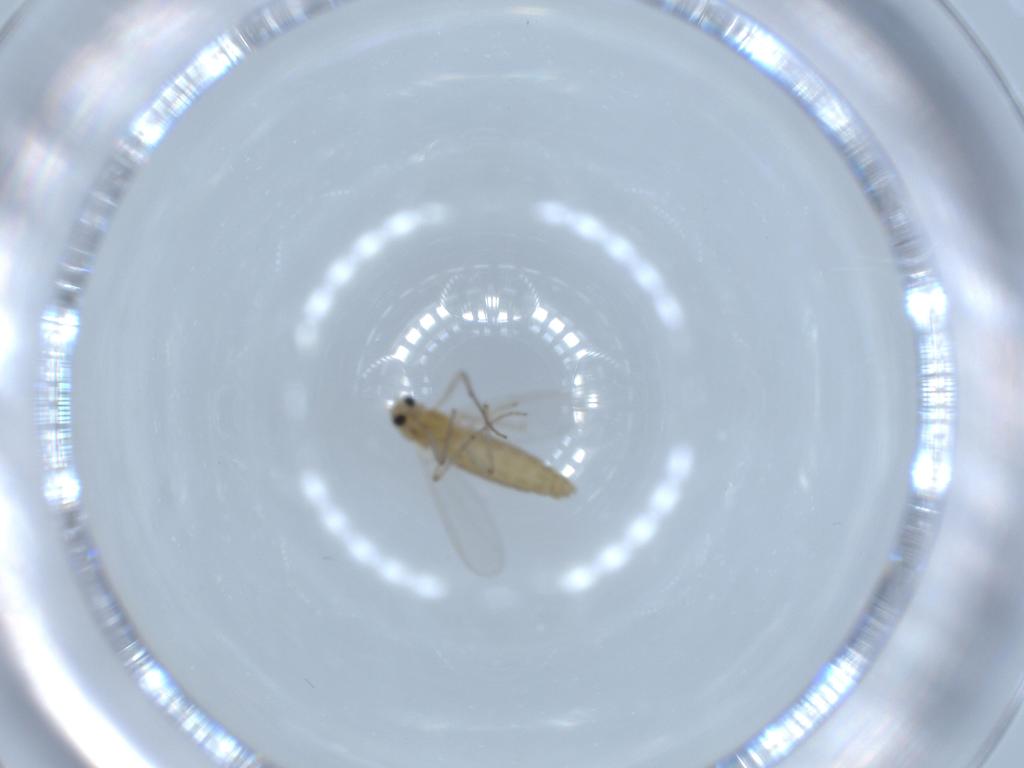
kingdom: Animalia
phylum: Arthropoda
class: Insecta
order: Diptera
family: Chironomidae
